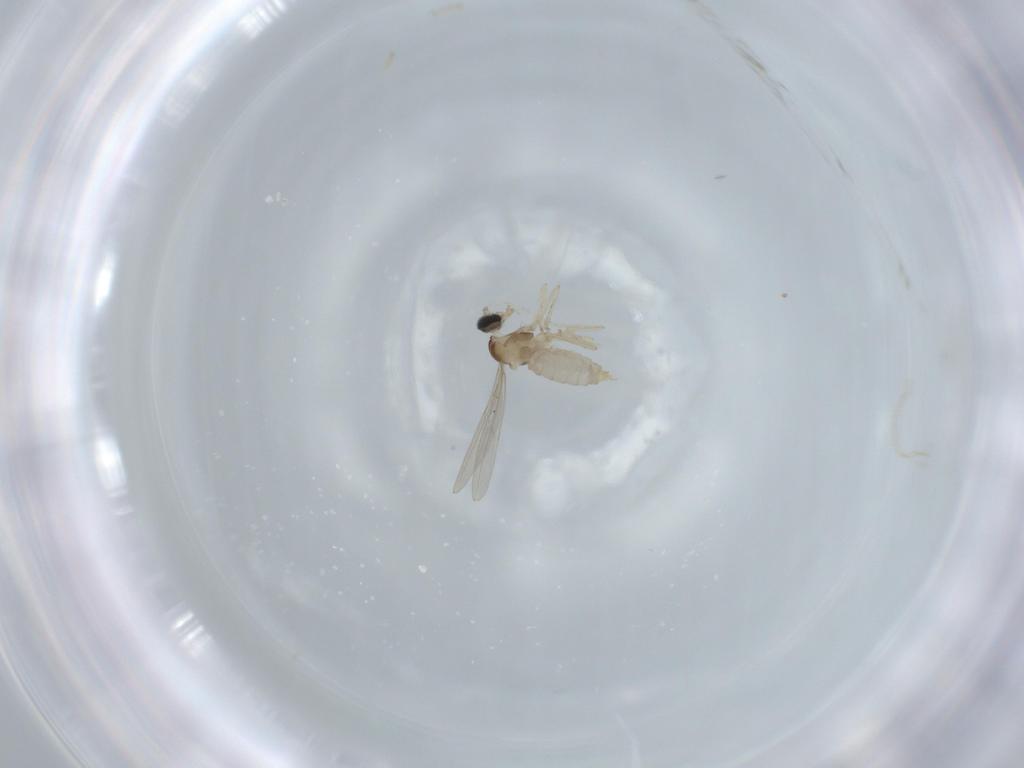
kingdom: Animalia
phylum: Arthropoda
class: Insecta
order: Diptera
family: Cecidomyiidae
